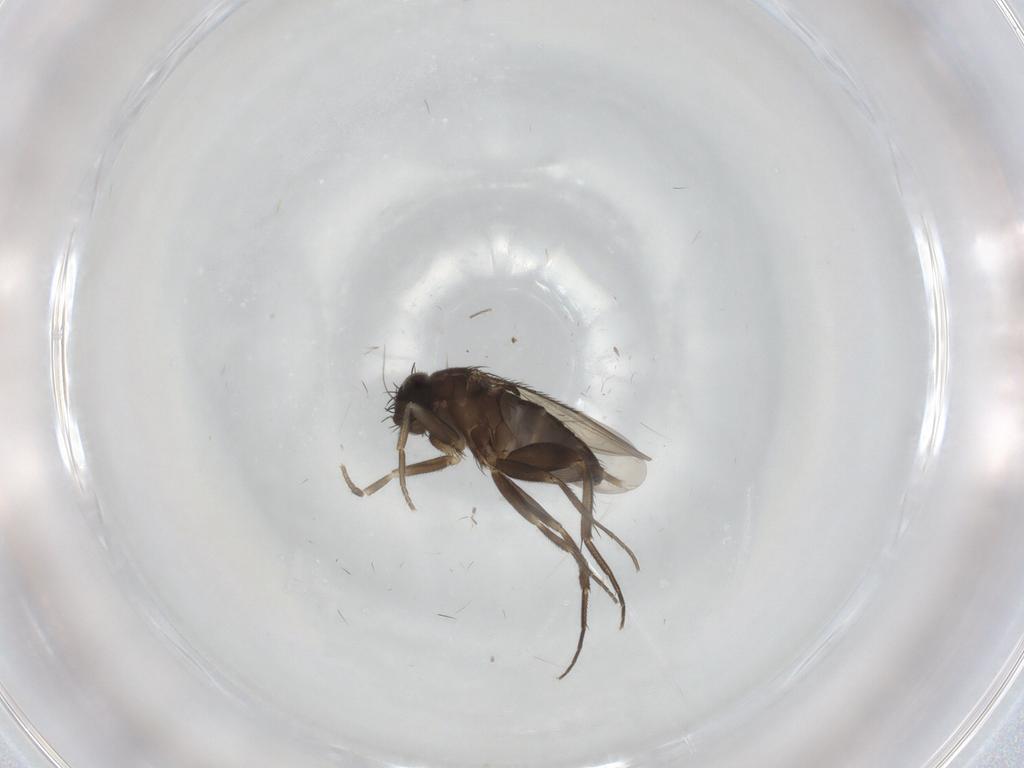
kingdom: Animalia
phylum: Arthropoda
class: Insecta
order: Diptera
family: Phoridae
